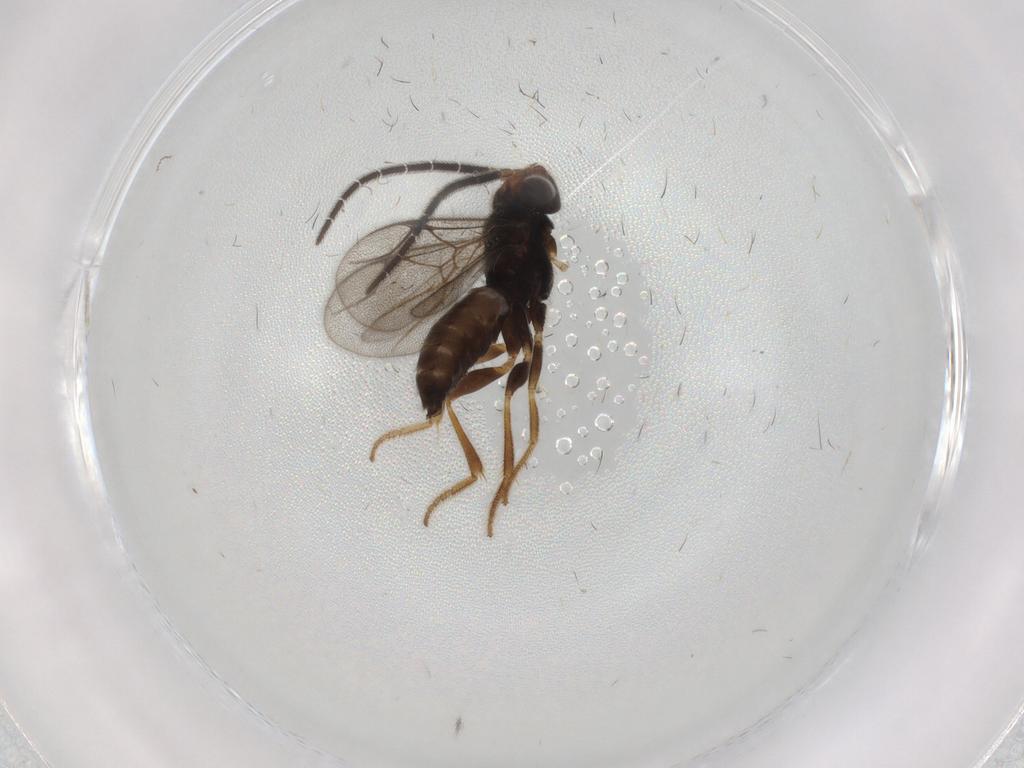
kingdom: Animalia
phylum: Arthropoda
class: Insecta
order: Hymenoptera
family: Dryinidae
